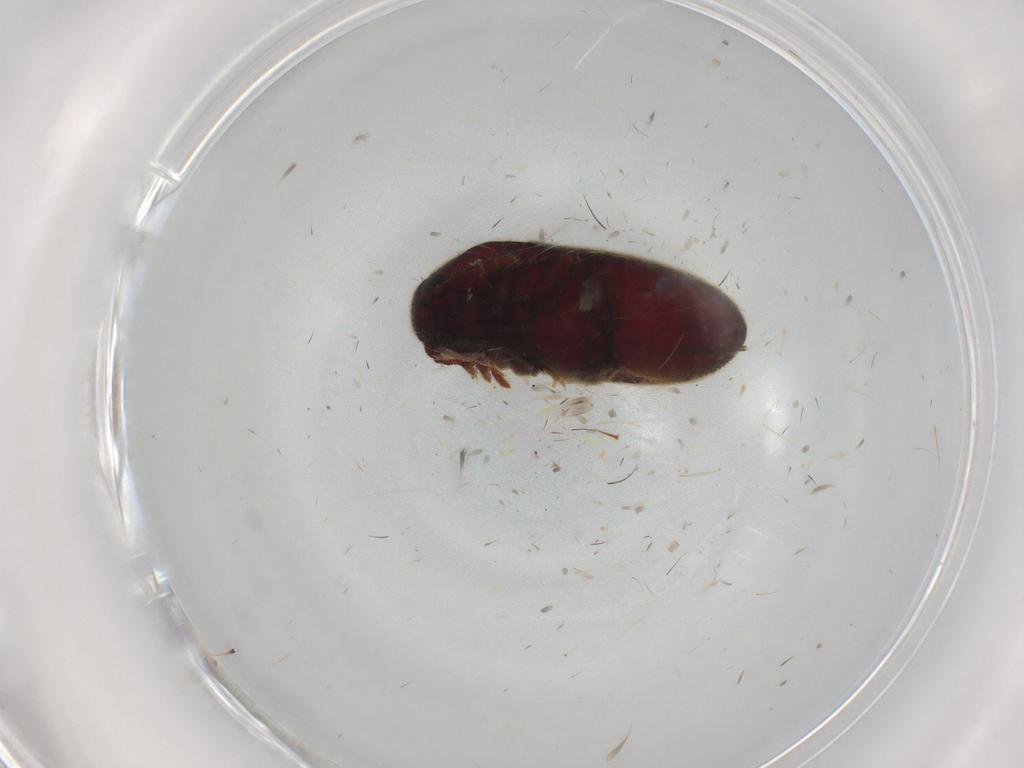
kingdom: Animalia
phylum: Arthropoda
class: Insecta
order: Coleoptera
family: Throscidae
